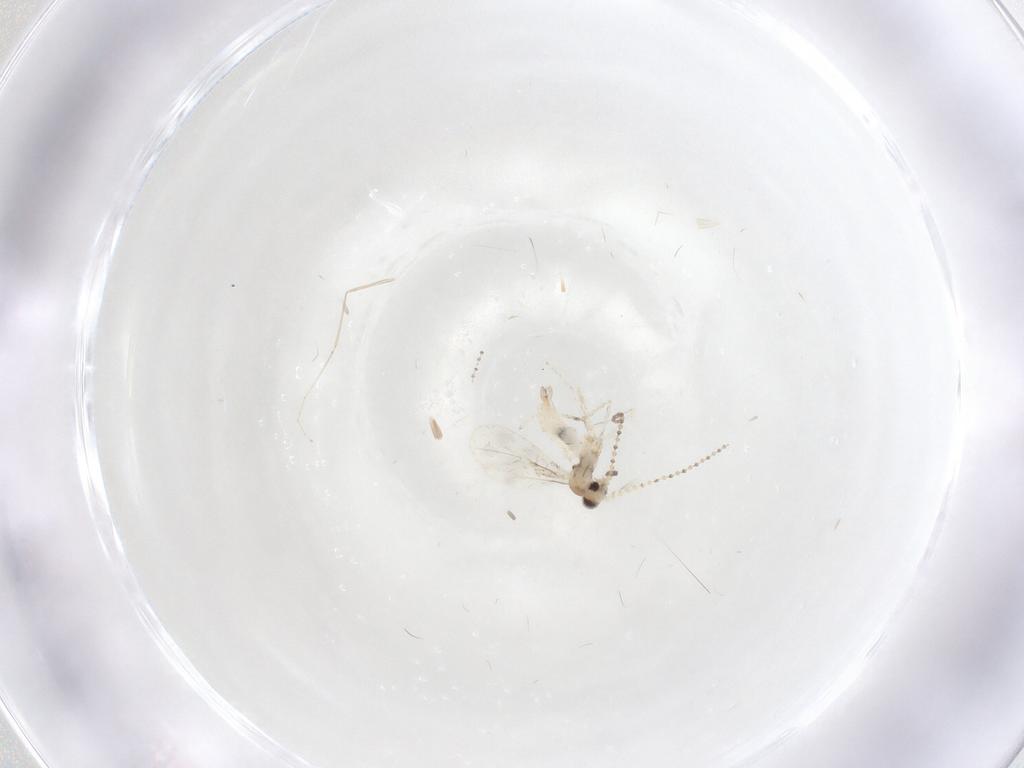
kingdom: Animalia
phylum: Arthropoda
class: Insecta
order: Diptera
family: Cecidomyiidae
